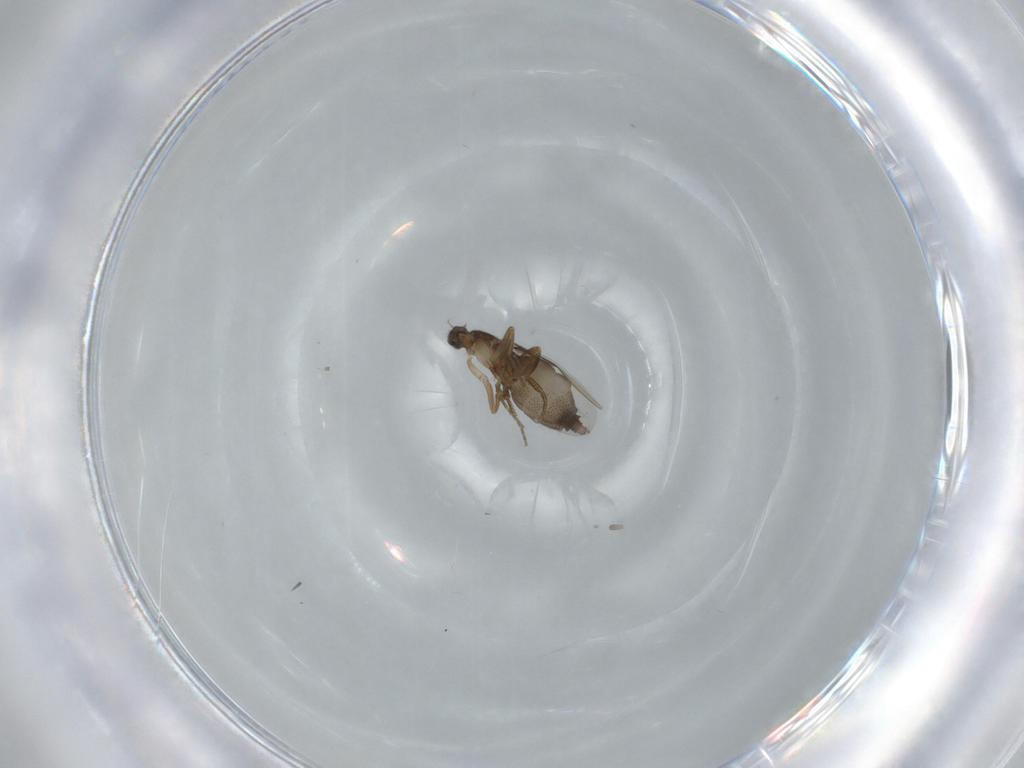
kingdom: Animalia
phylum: Arthropoda
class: Insecta
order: Diptera
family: Phoridae
